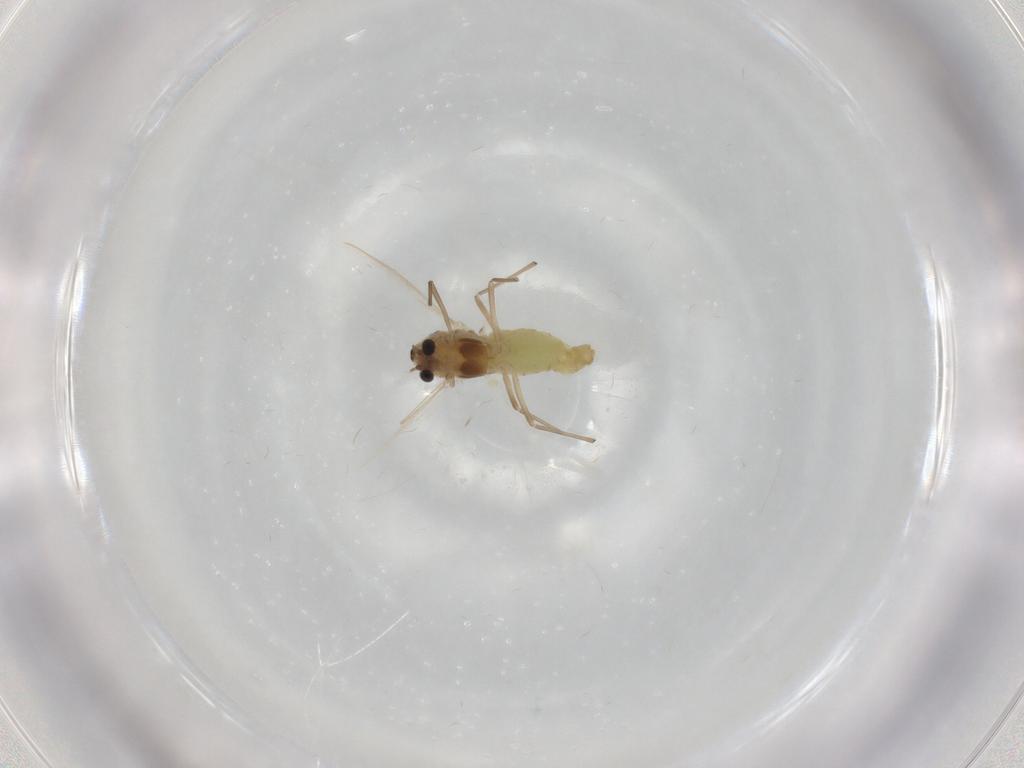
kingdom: Animalia
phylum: Arthropoda
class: Insecta
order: Diptera
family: Chironomidae
